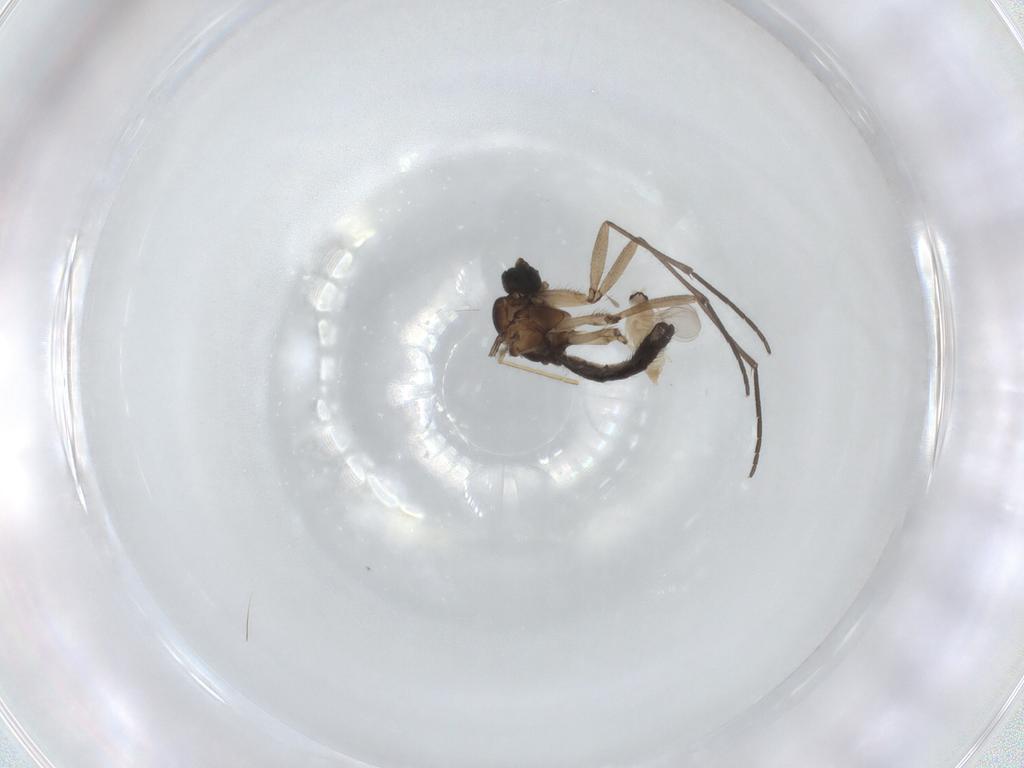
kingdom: Animalia
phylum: Arthropoda
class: Insecta
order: Diptera
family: Sciaridae
